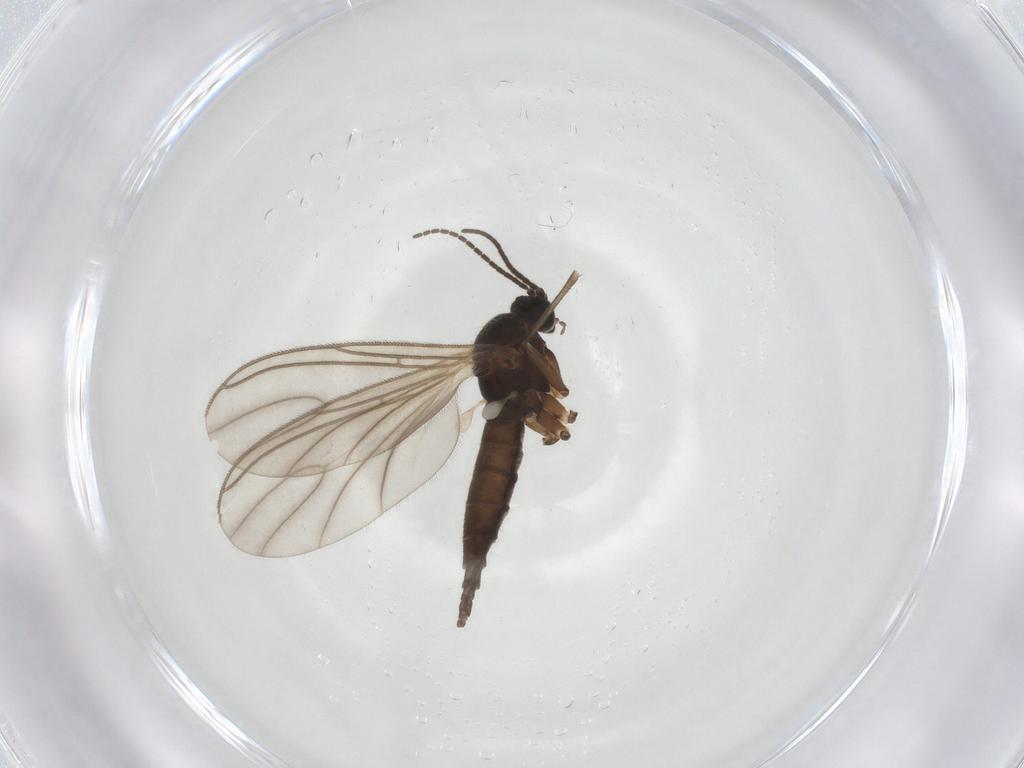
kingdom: Animalia
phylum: Arthropoda
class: Insecta
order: Diptera
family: Sciaridae
